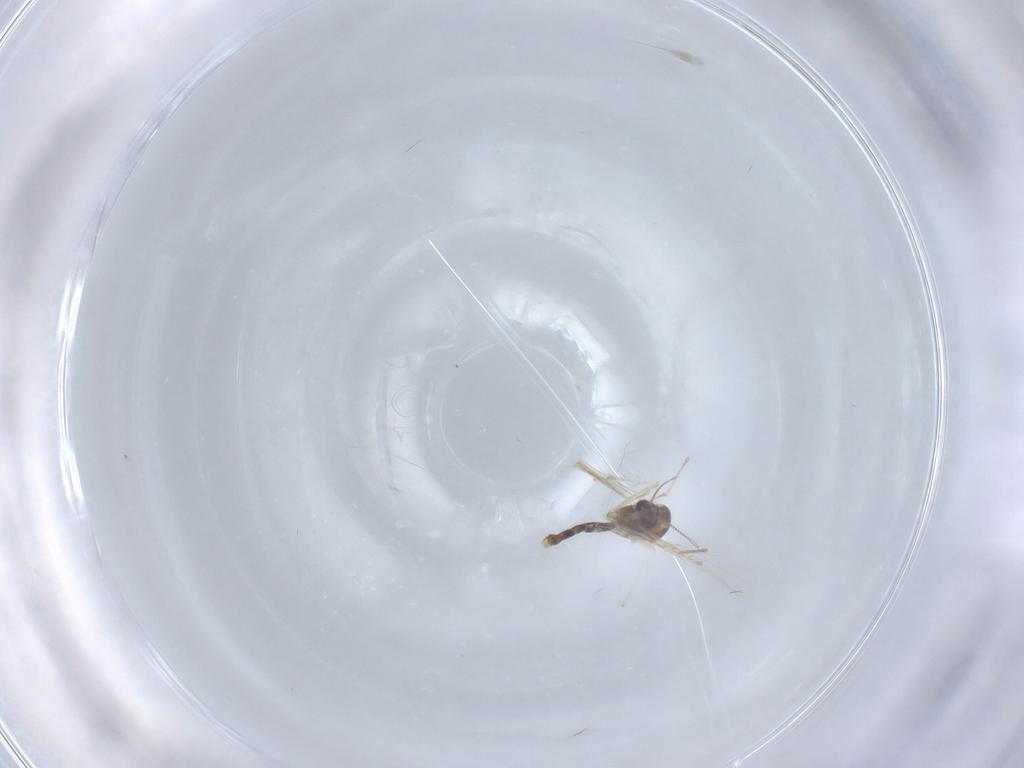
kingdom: Animalia
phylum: Arthropoda
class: Insecta
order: Diptera
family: Chironomidae
